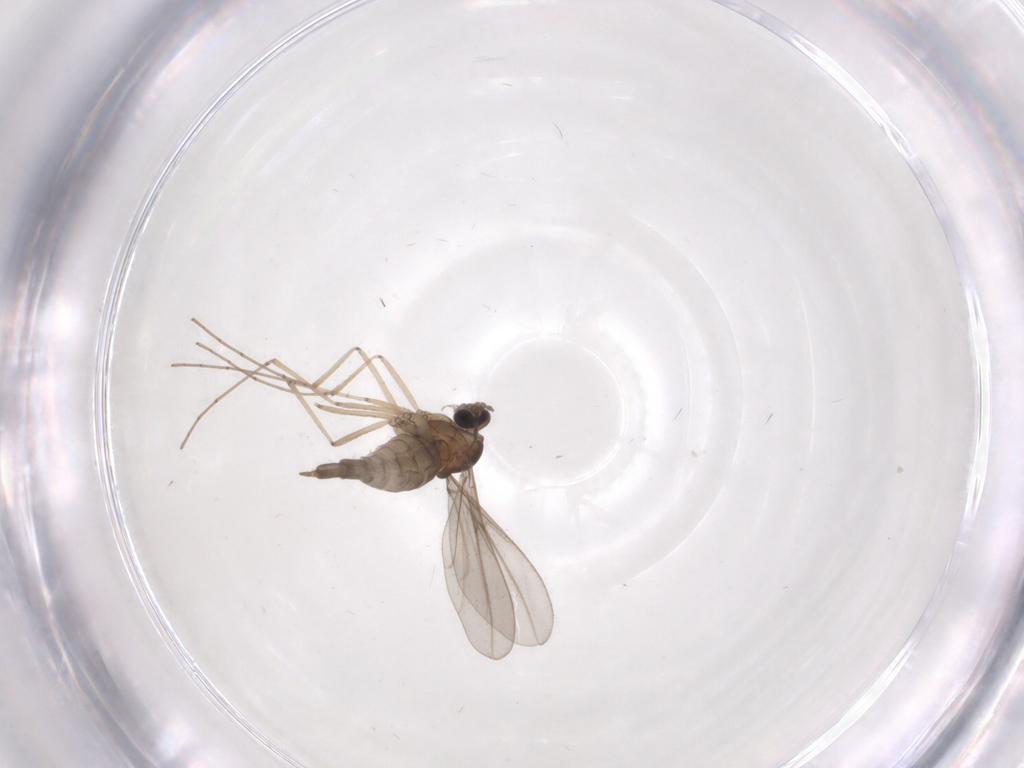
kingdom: Animalia
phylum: Arthropoda
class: Insecta
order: Diptera
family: Cecidomyiidae
